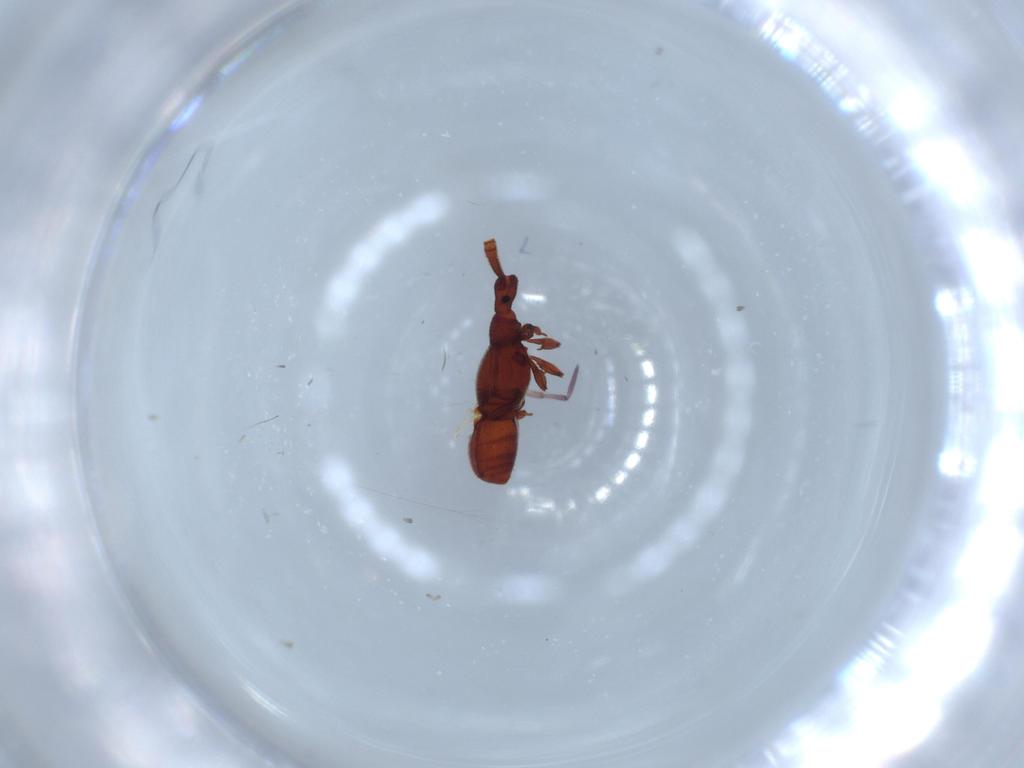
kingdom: Animalia
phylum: Arthropoda
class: Insecta
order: Coleoptera
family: Staphylinidae
